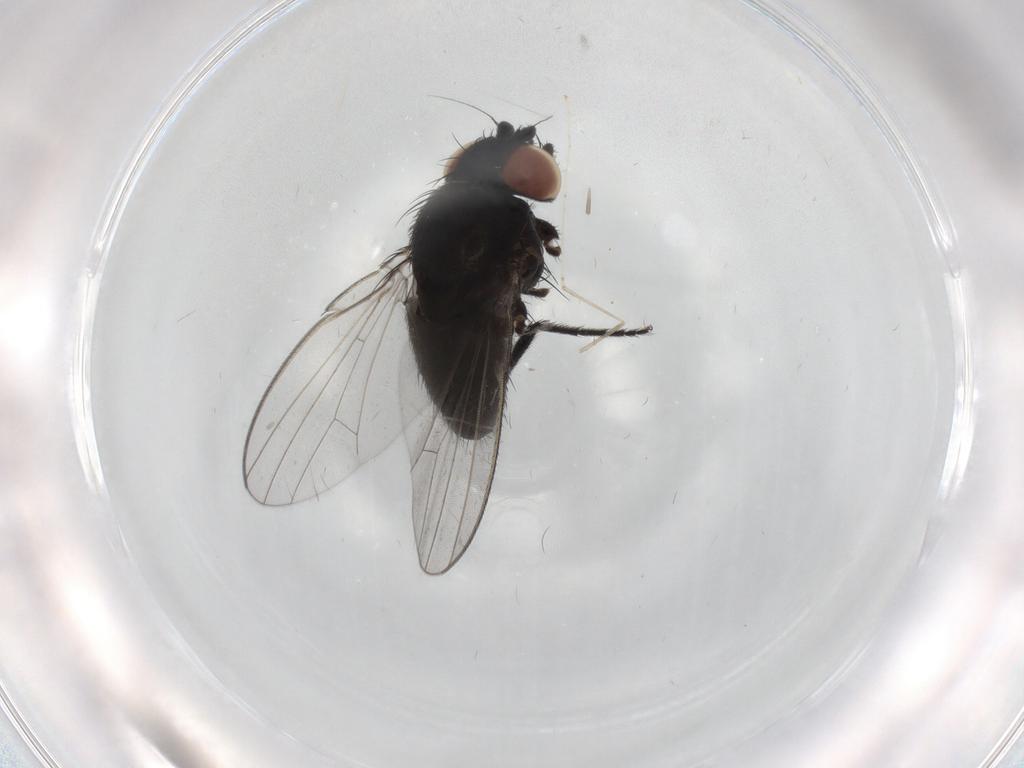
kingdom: Animalia
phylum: Arthropoda
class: Insecta
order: Diptera
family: Milichiidae
